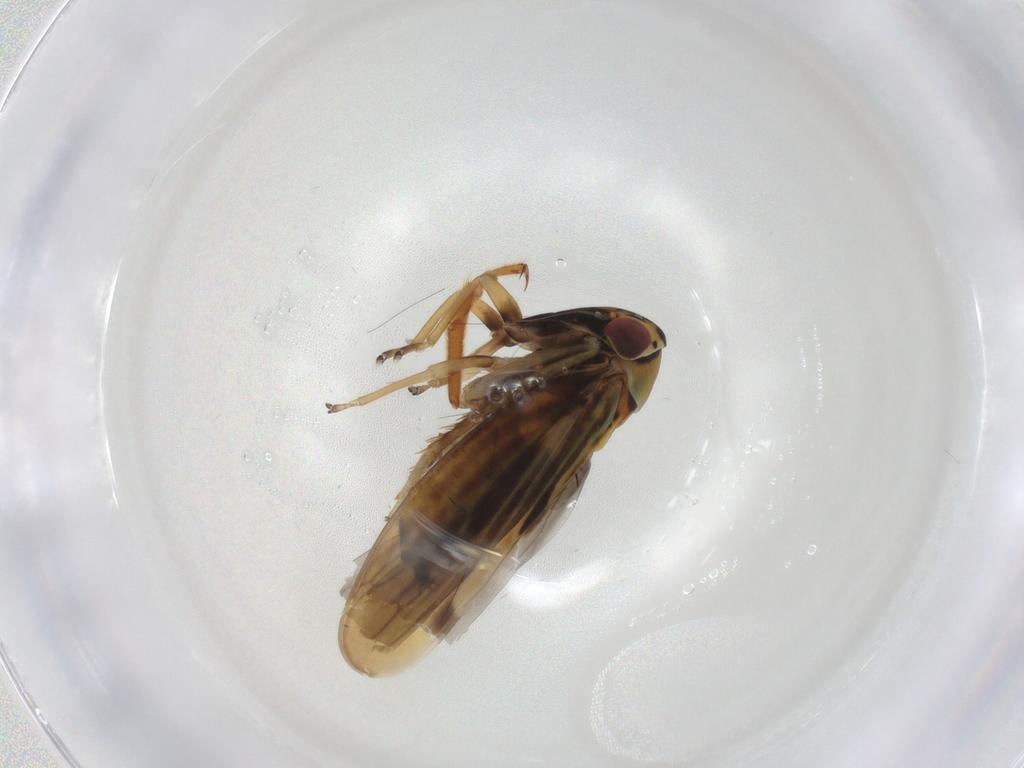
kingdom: Animalia
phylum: Arthropoda
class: Insecta
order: Hemiptera
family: Cicadellidae
